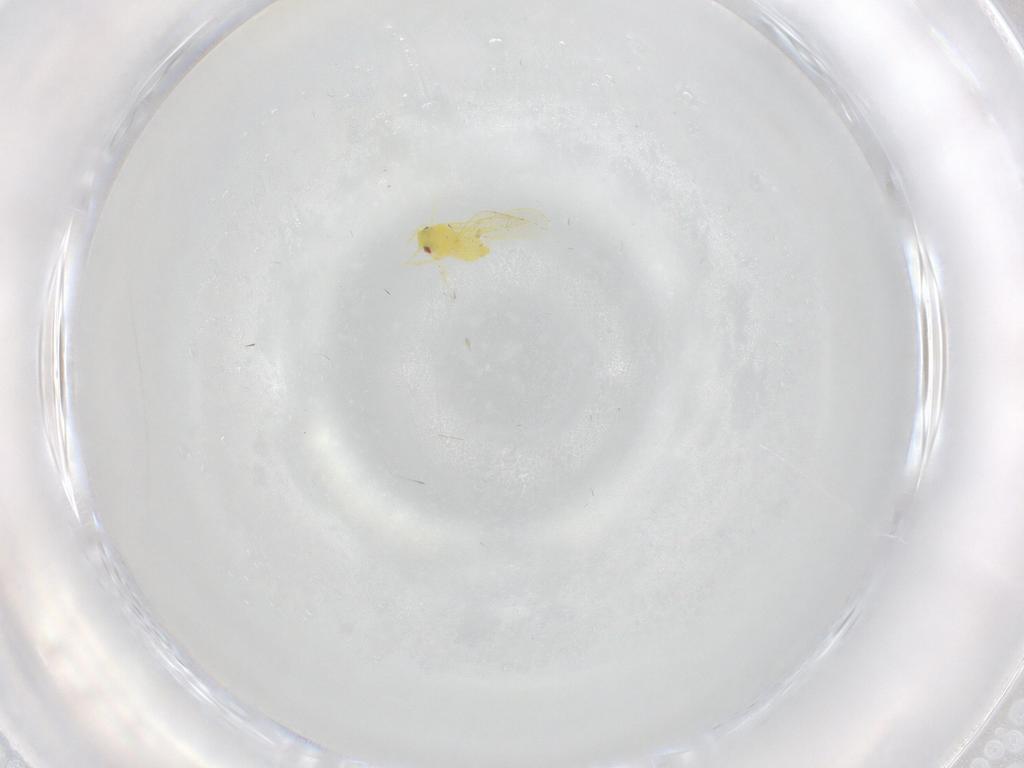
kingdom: Animalia
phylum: Arthropoda
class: Insecta
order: Hemiptera
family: Aleyrodidae
